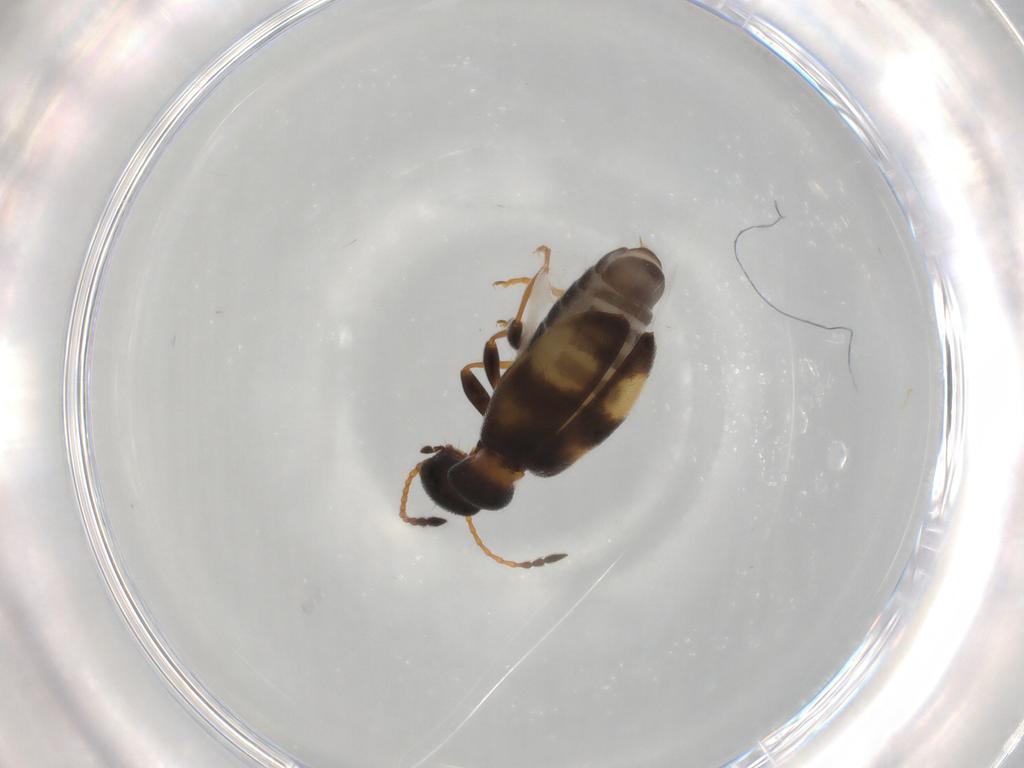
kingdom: Animalia
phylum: Arthropoda
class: Insecta
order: Coleoptera
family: Anthicidae
